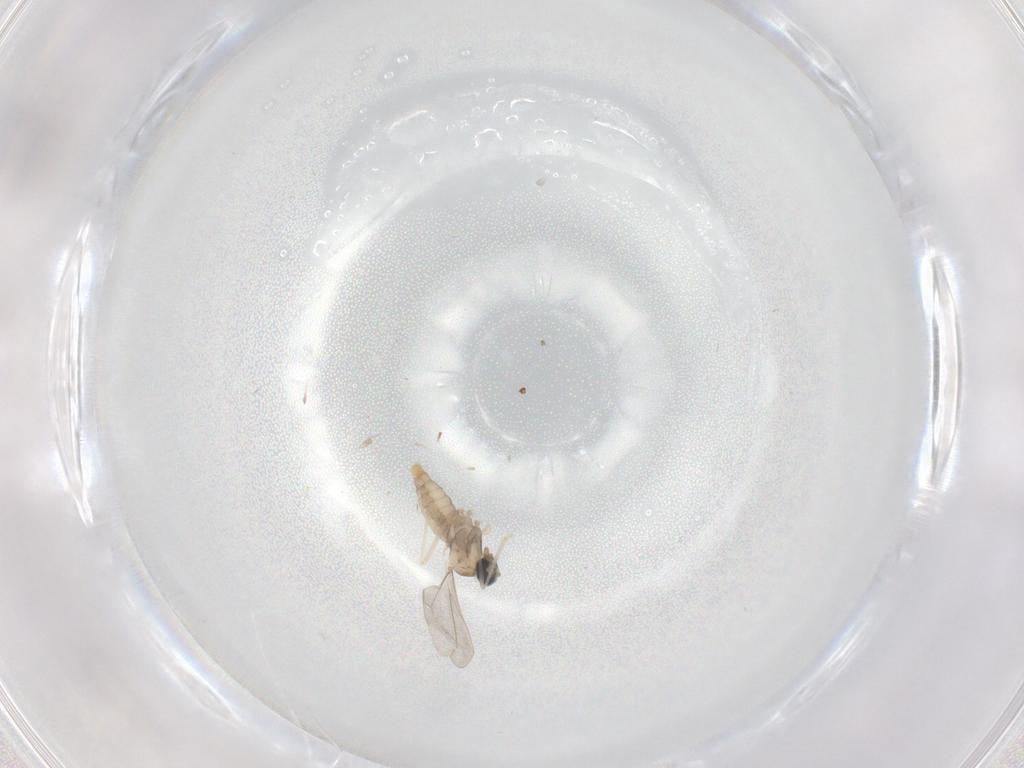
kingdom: Animalia
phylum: Arthropoda
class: Insecta
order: Diptera
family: Cecidomyiidae
